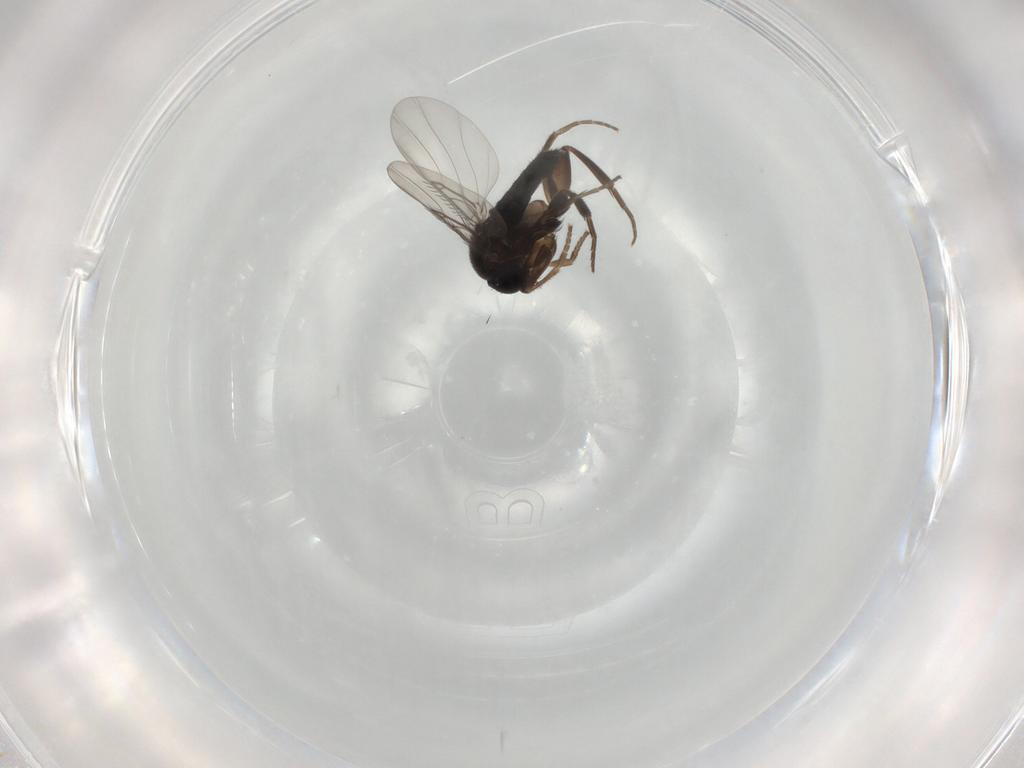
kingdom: Animalia
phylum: Arthropoda
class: Insecta
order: Diptera
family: Phoridae
